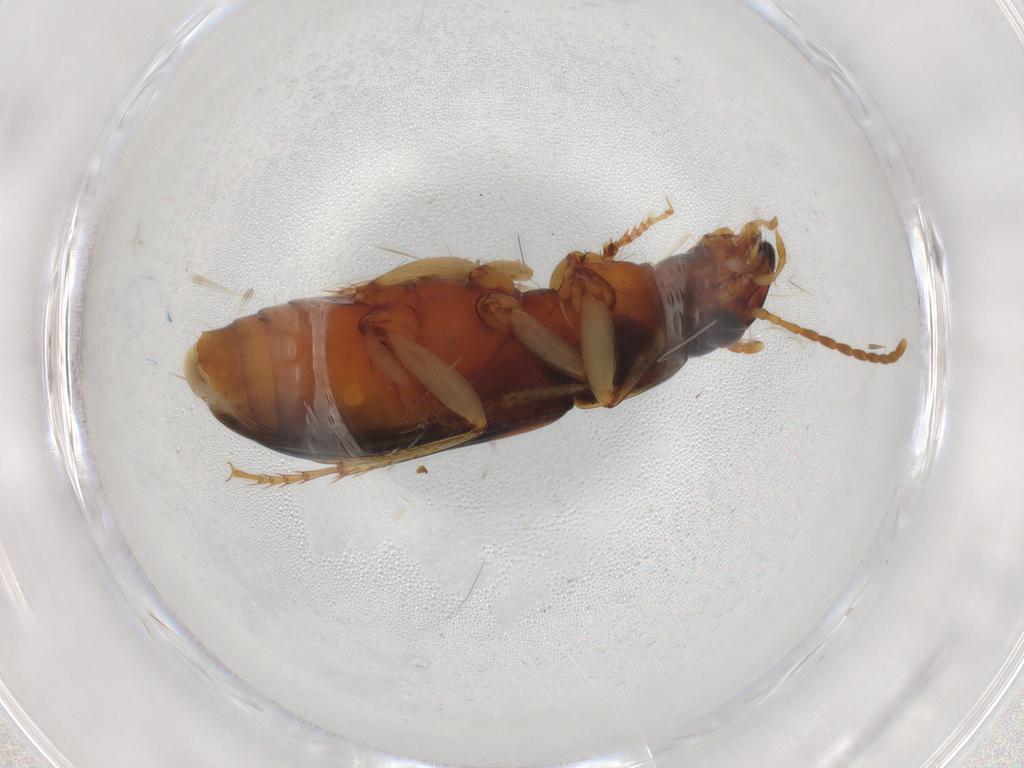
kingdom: Animalia
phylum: Arthropoda
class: Insecta
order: Coleoptera
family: Carabidae
